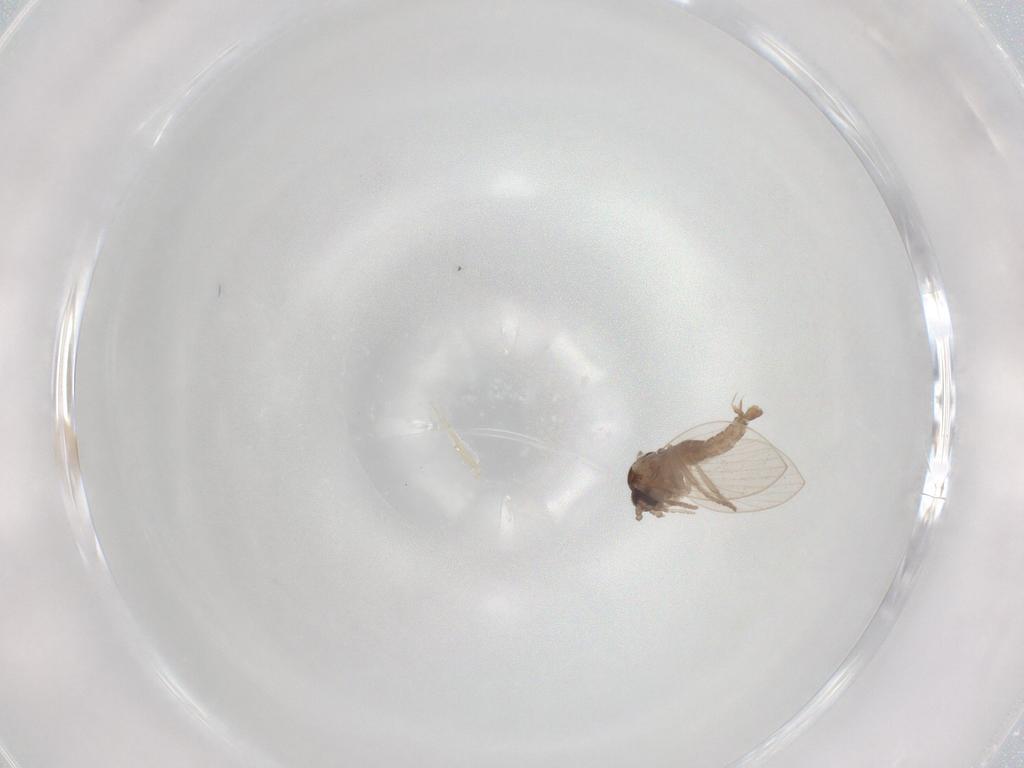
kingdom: Animalia
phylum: Arthropoda
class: Insecta
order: Diptera
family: Psychodidae
